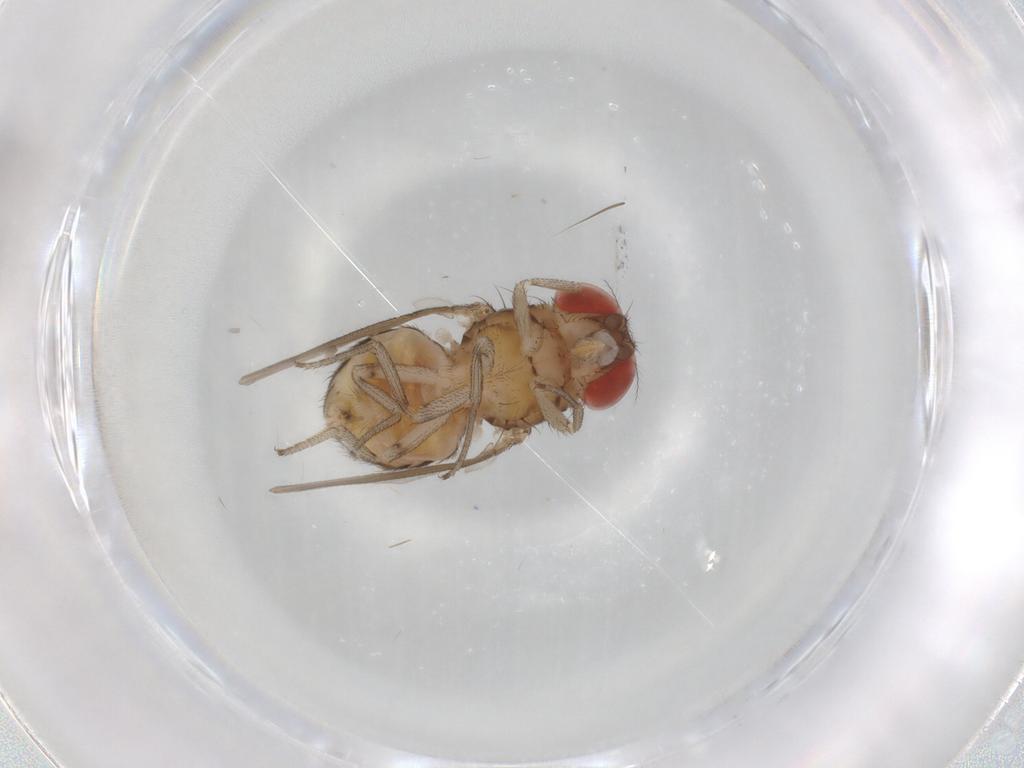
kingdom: Animalia
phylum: Arthropoda
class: Insecta
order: Diptera
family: Drosophilidae
